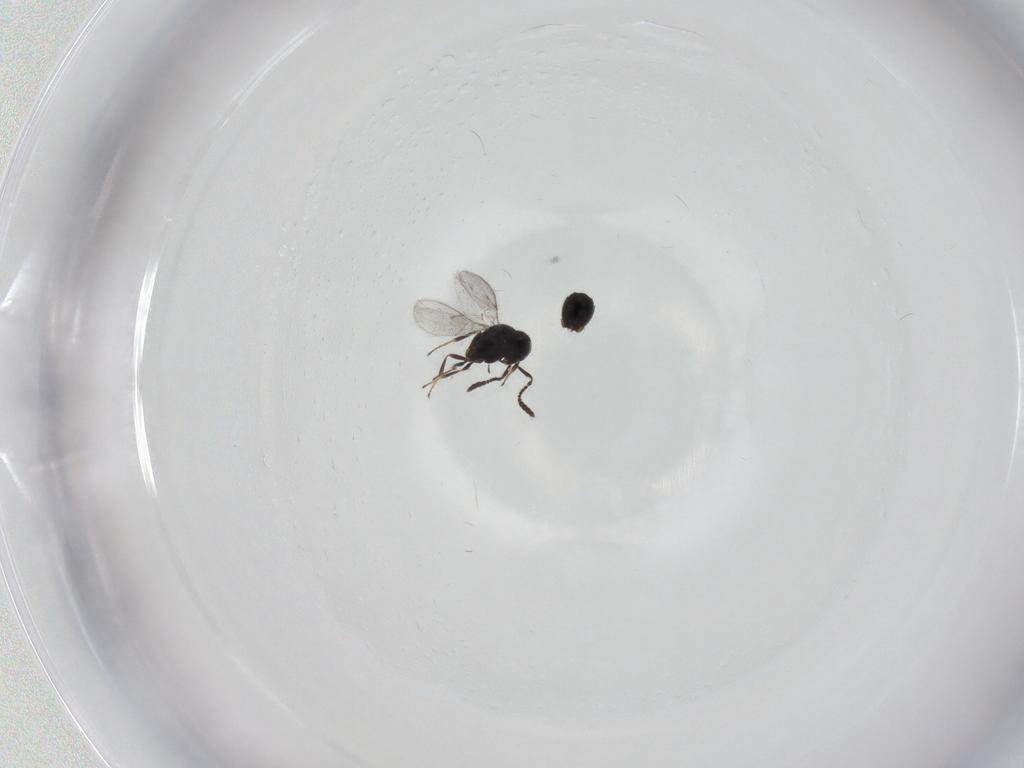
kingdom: Animalia
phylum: Arthropoda
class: Insecta
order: Hymenoptera
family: Scelionidae
